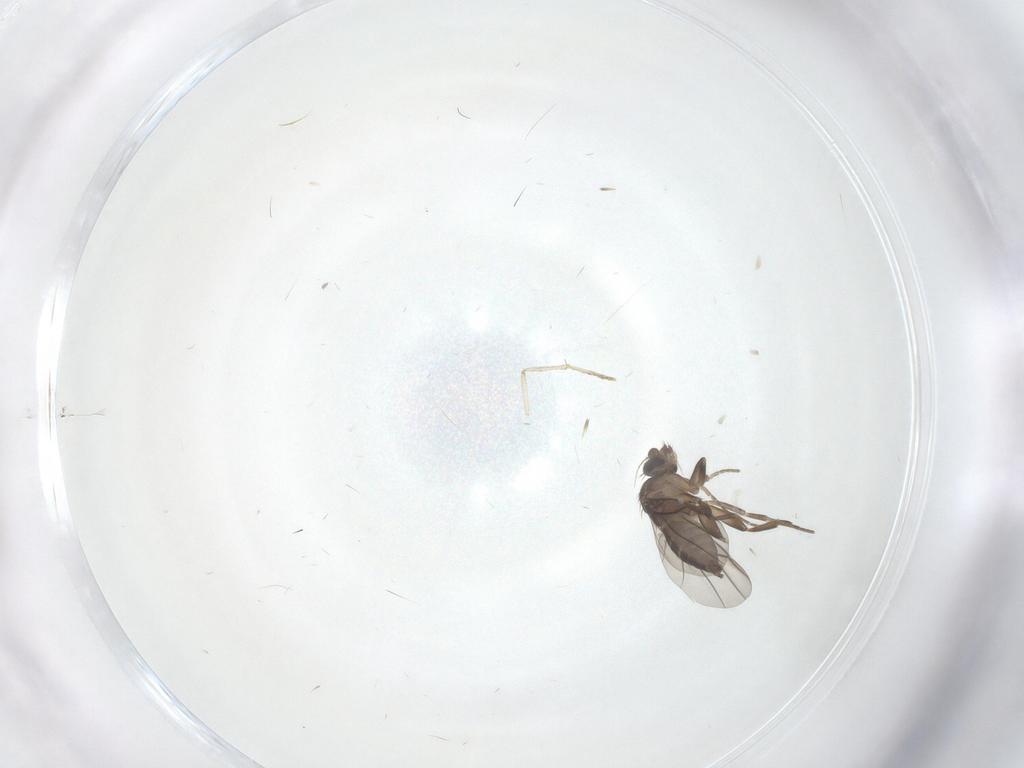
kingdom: Animalia
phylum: Arthropoda
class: Insecta
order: Diptera
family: Phoridae
